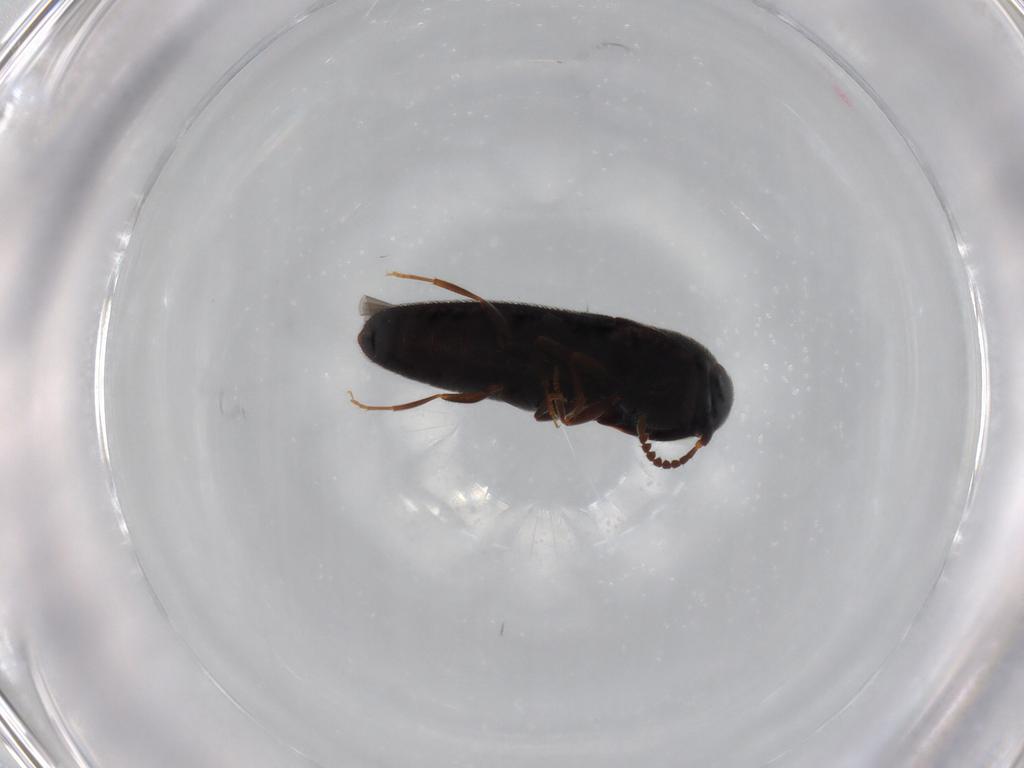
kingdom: Animalia
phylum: Arthropoda
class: Insecta
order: Coleoptera
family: Eucnemidae
